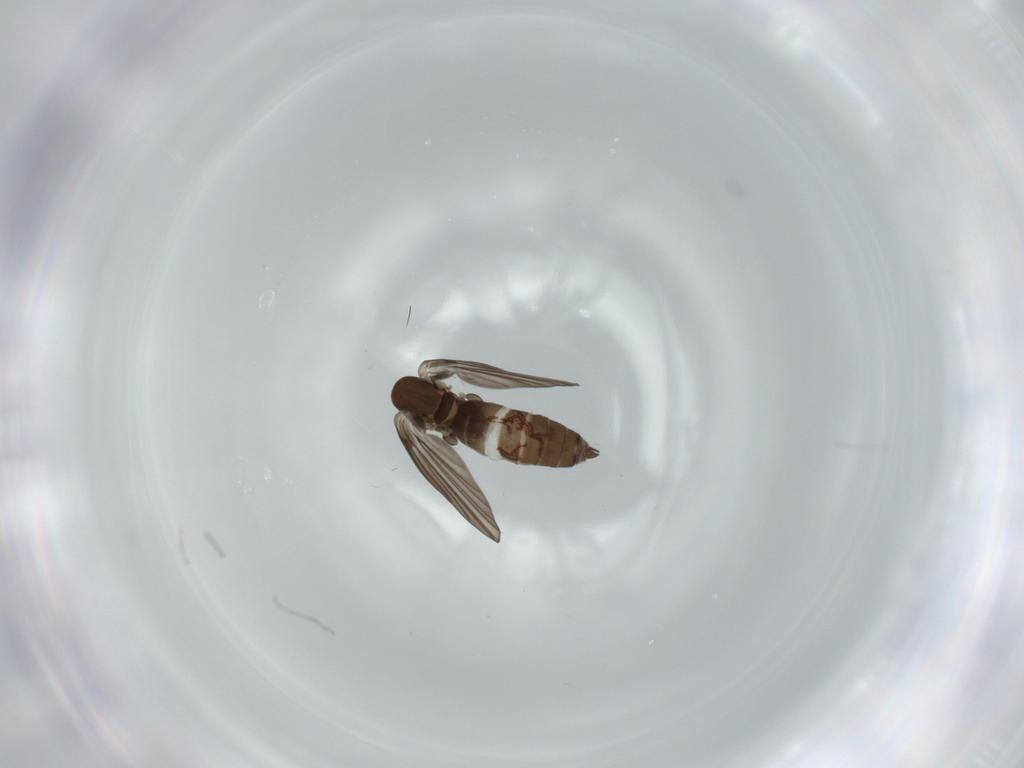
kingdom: Animalia
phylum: Arthropoda
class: Insecta
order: Diptera
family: Chironomidae
